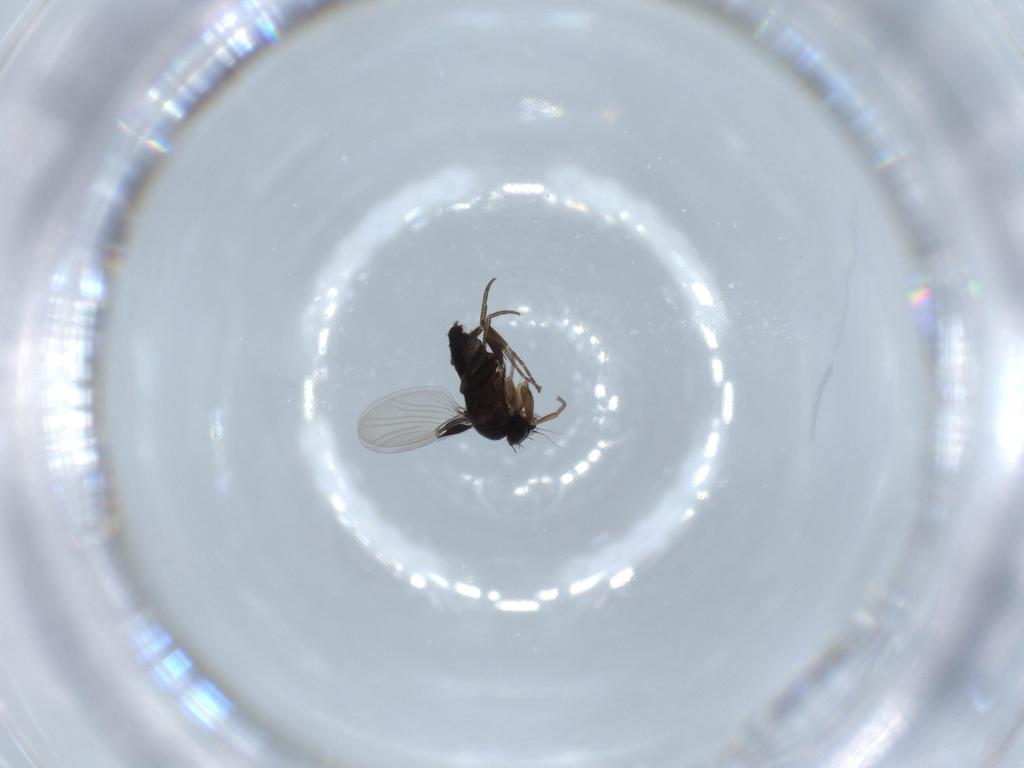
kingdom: Animalia
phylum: Arthropoda
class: Insecta
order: Diptera
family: Phoridae
